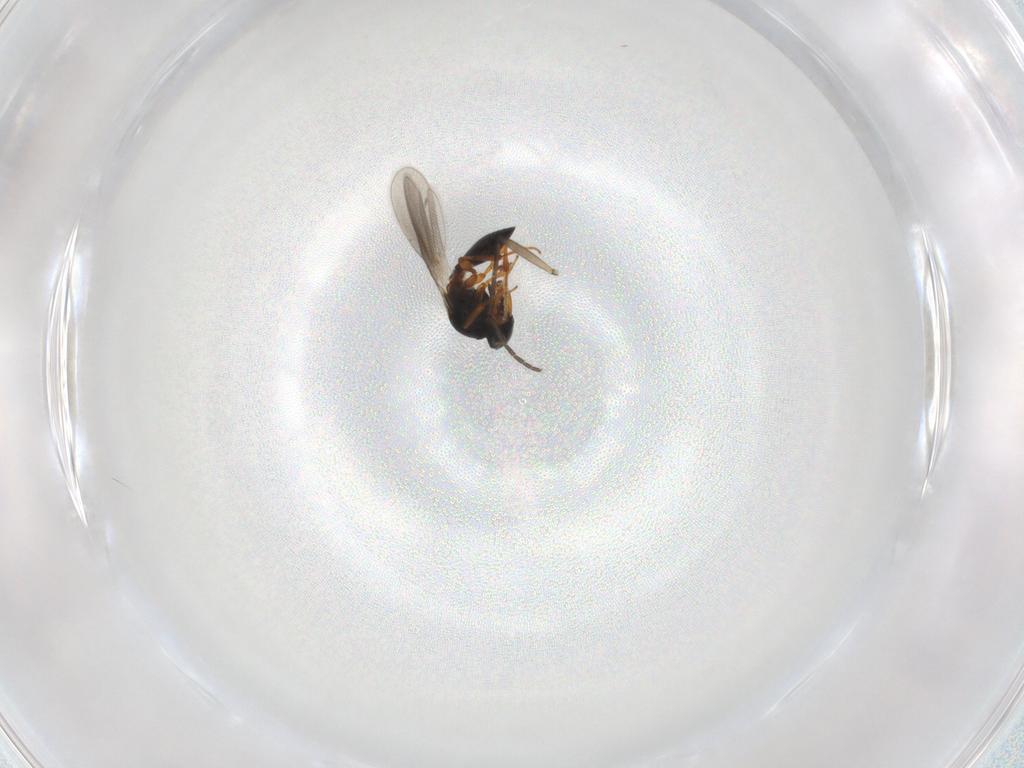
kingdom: Animalia
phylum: Arthropoda
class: Insecta
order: Hymenoptera
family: Platygastridae
